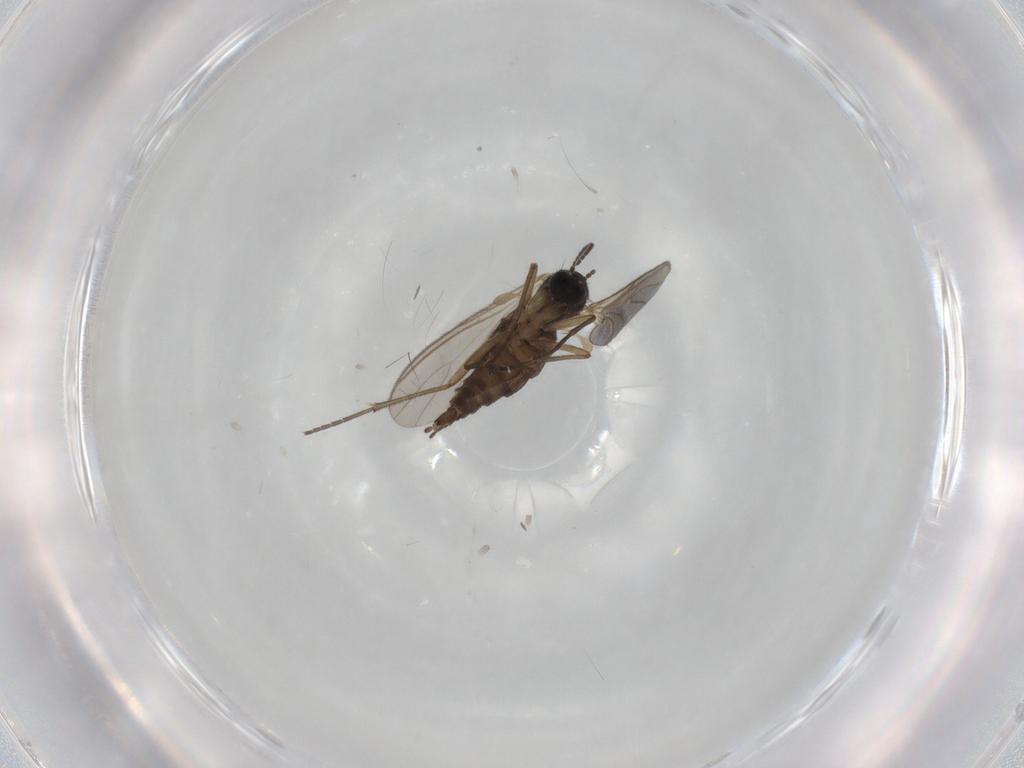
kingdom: Animalia
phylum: Arthropoda
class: Insecta
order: Diptera
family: Sciaridae
